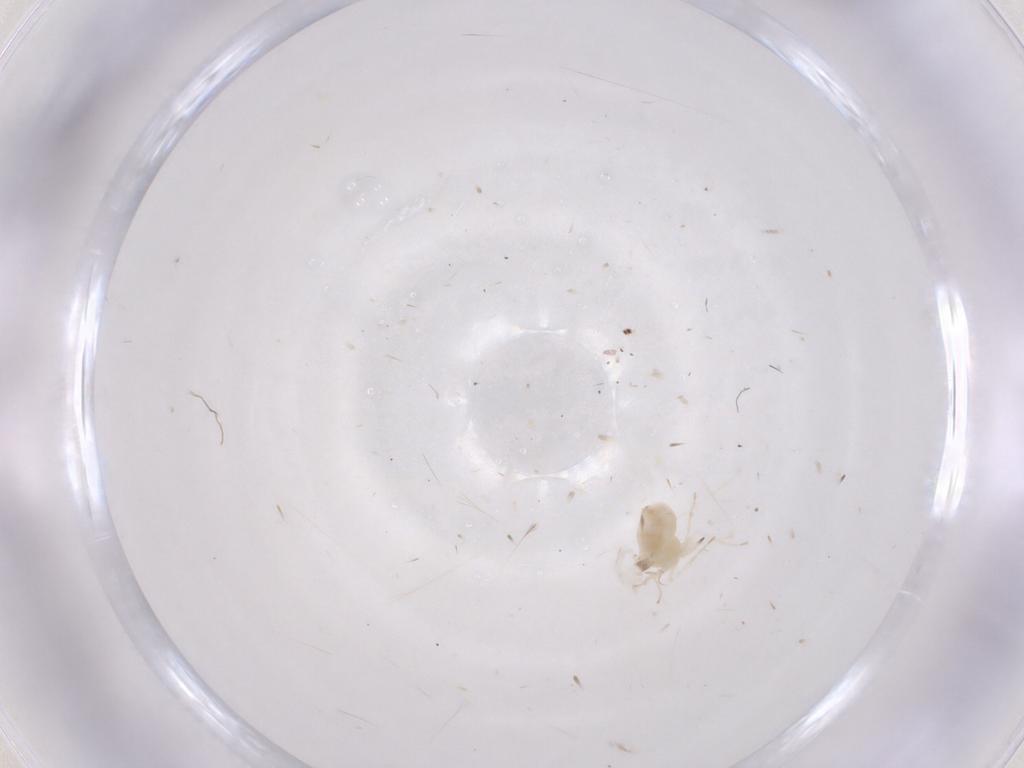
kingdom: Animalia
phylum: Arthropoda
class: Insecta
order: Hemiptera
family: Aleyrodidae
